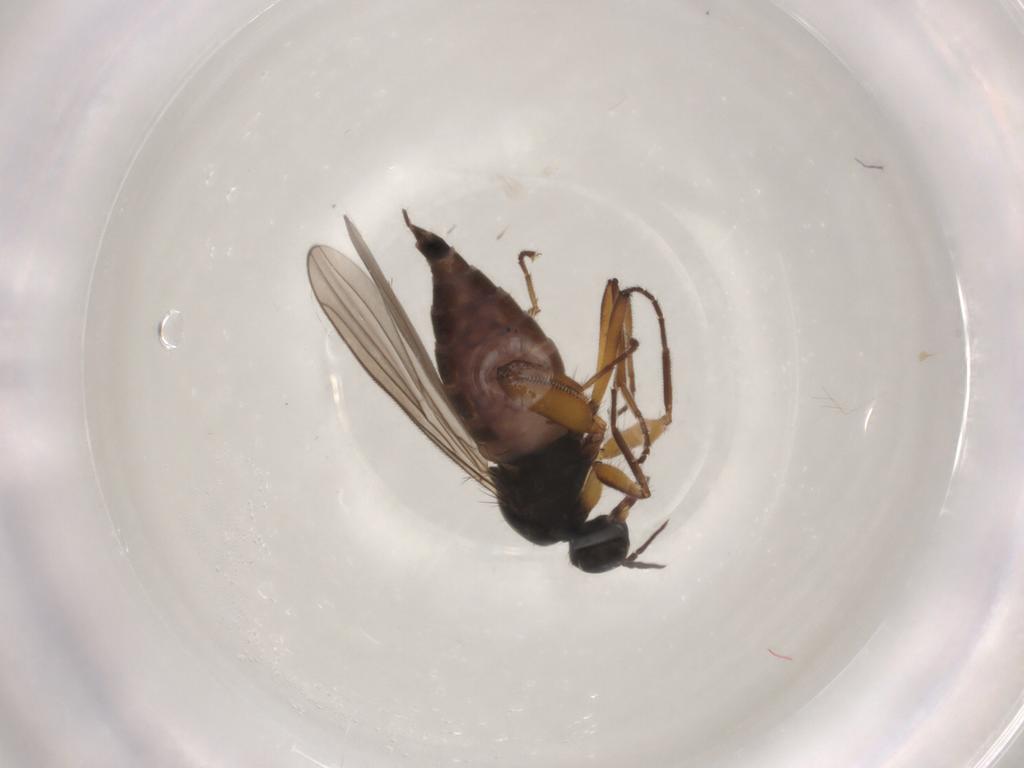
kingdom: Animalia
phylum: Arthropoda
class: Insecta
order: Diptera
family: Hybotidae
